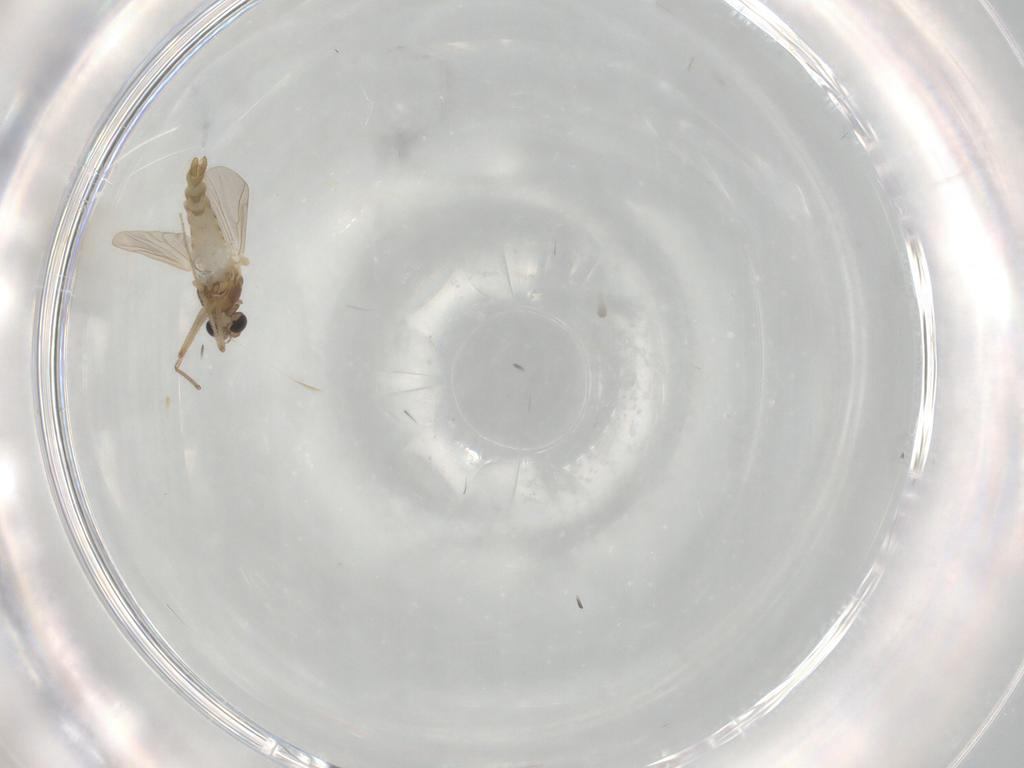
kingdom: Animalia
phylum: Arthropoda
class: Insecta
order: Diptera
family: Chironomidae
